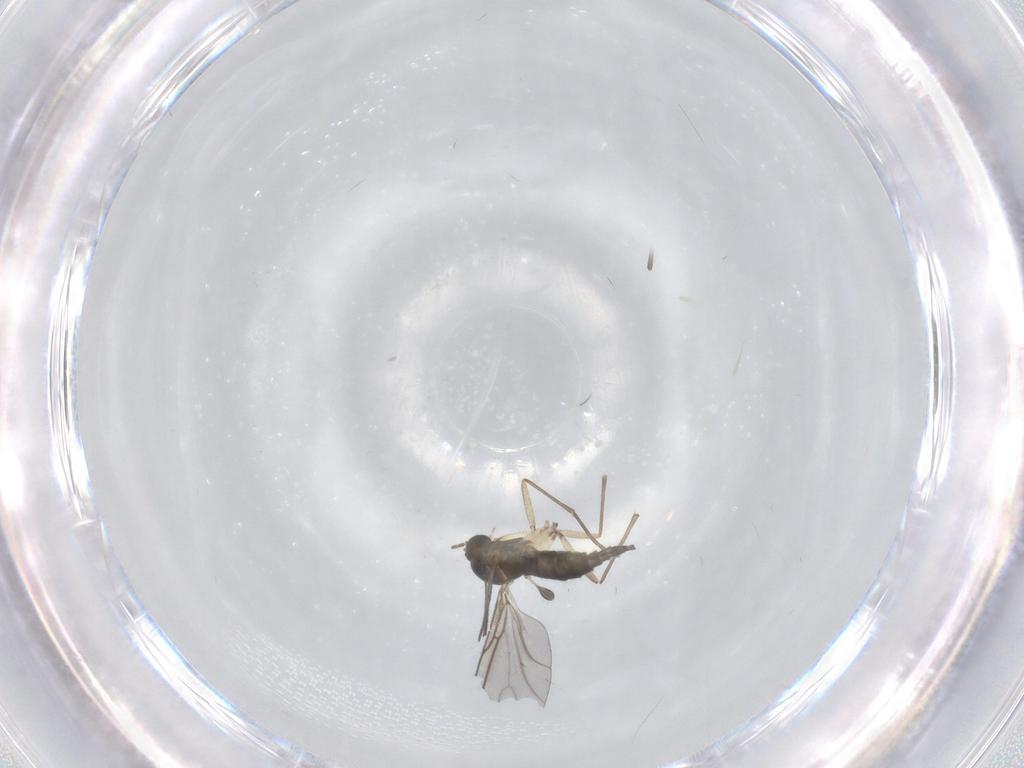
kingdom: Animalia
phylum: Arthropoda
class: Insecta
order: Diptera
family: Sciaridae
